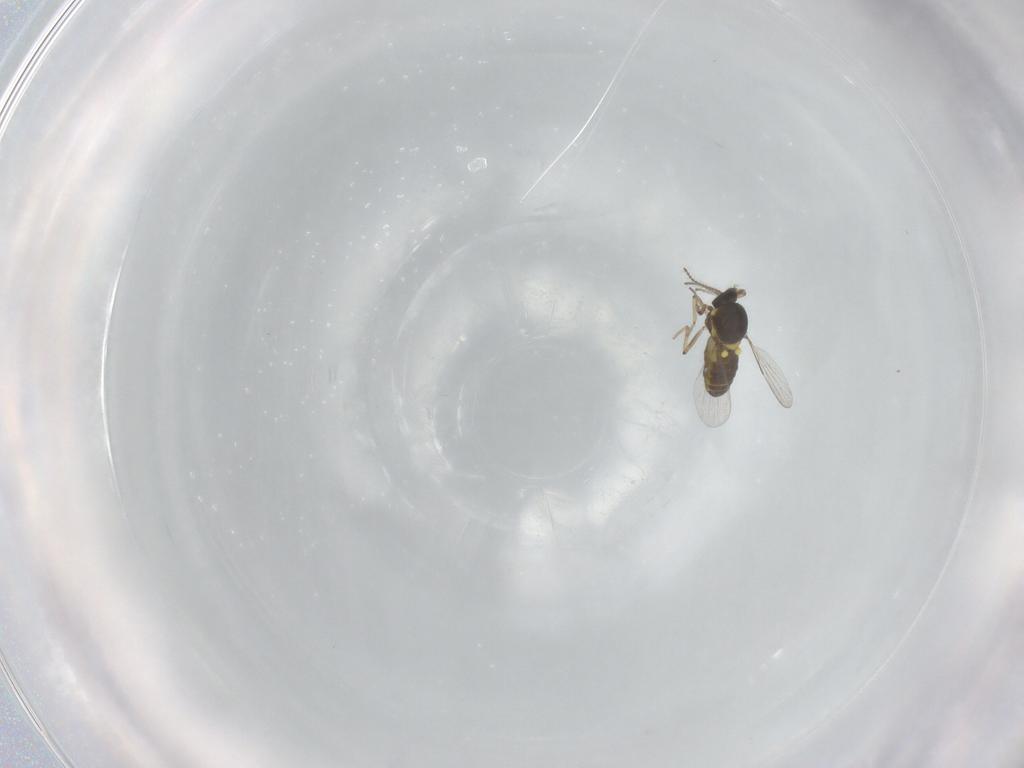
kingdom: Animalia
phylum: Arthropoda
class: Insecta
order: Diptera
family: Ceratopogonidae
